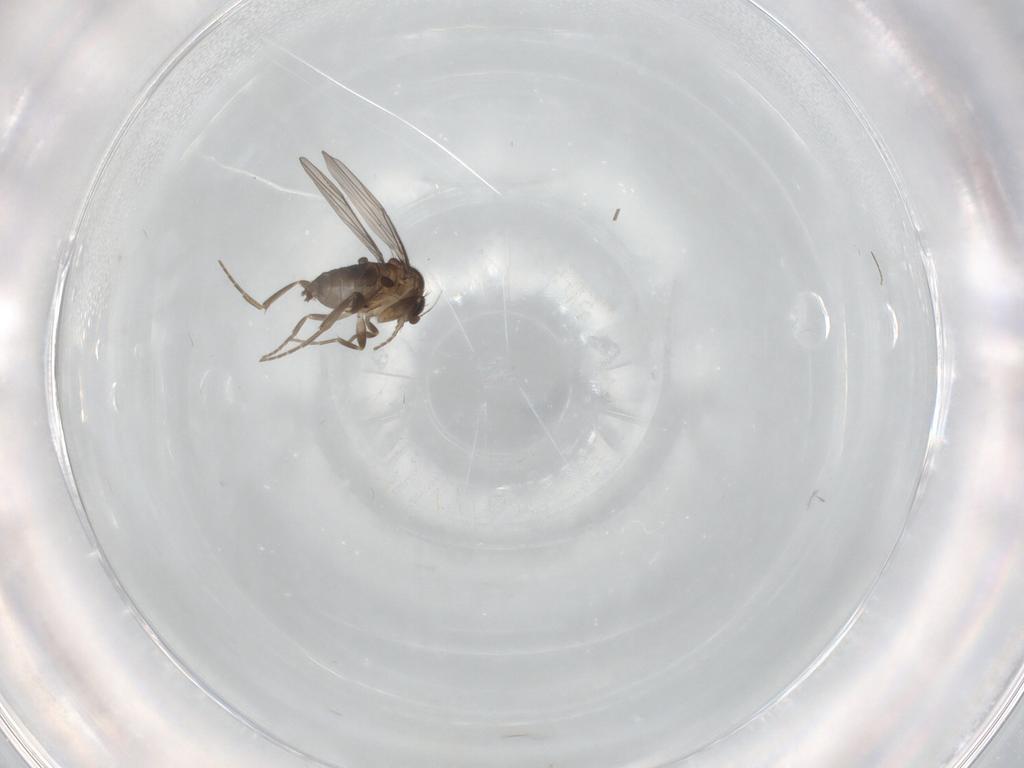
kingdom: Animalia
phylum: Arthropoda
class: Insecta
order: Diptera
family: Chironomidae
